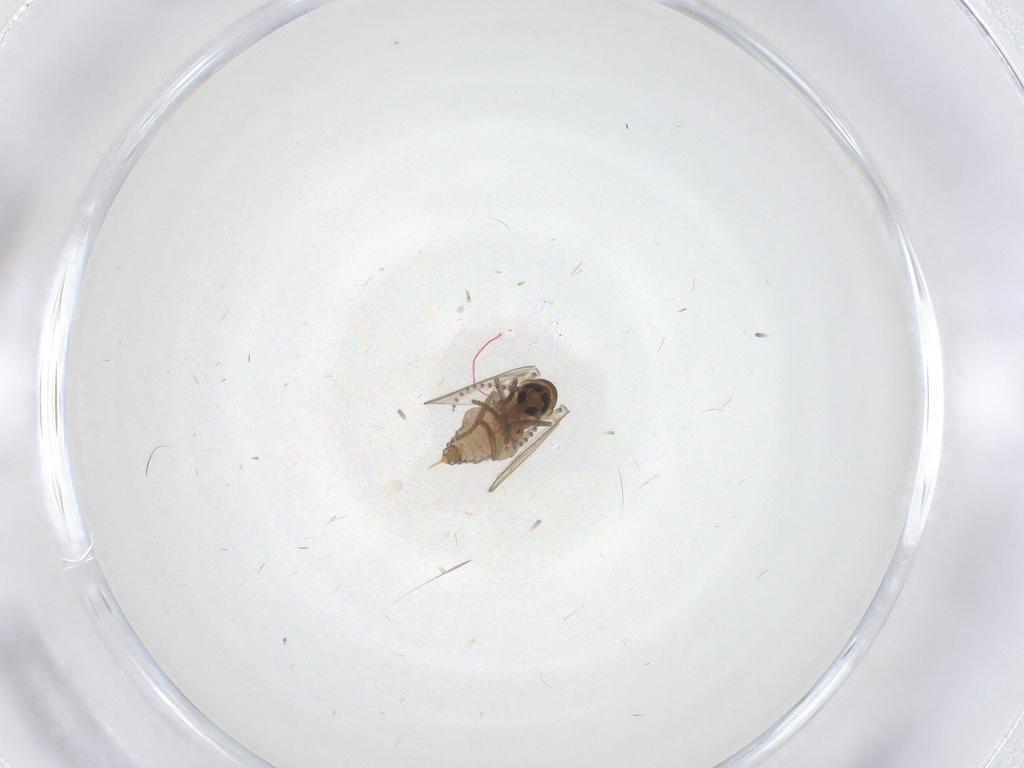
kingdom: Animalia
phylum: Arthropoda
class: Insecta
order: Diptera
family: Psychodidae
